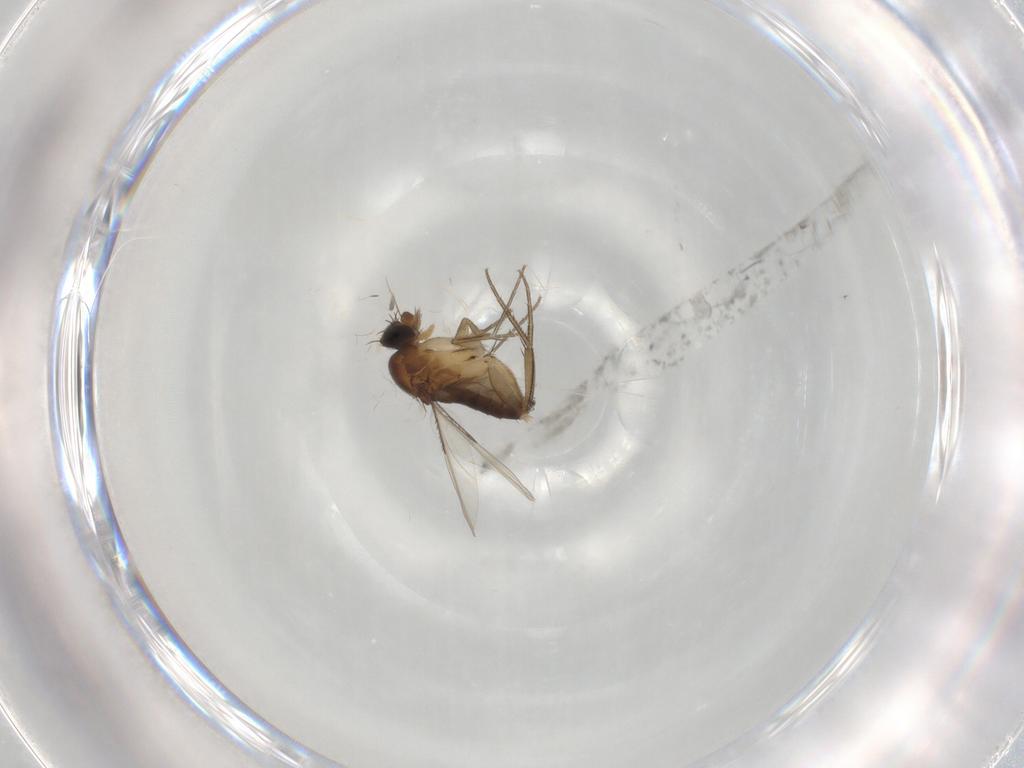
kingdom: Animalia
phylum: Arthropoda
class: Insecta
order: Diptera
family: Phoridae
